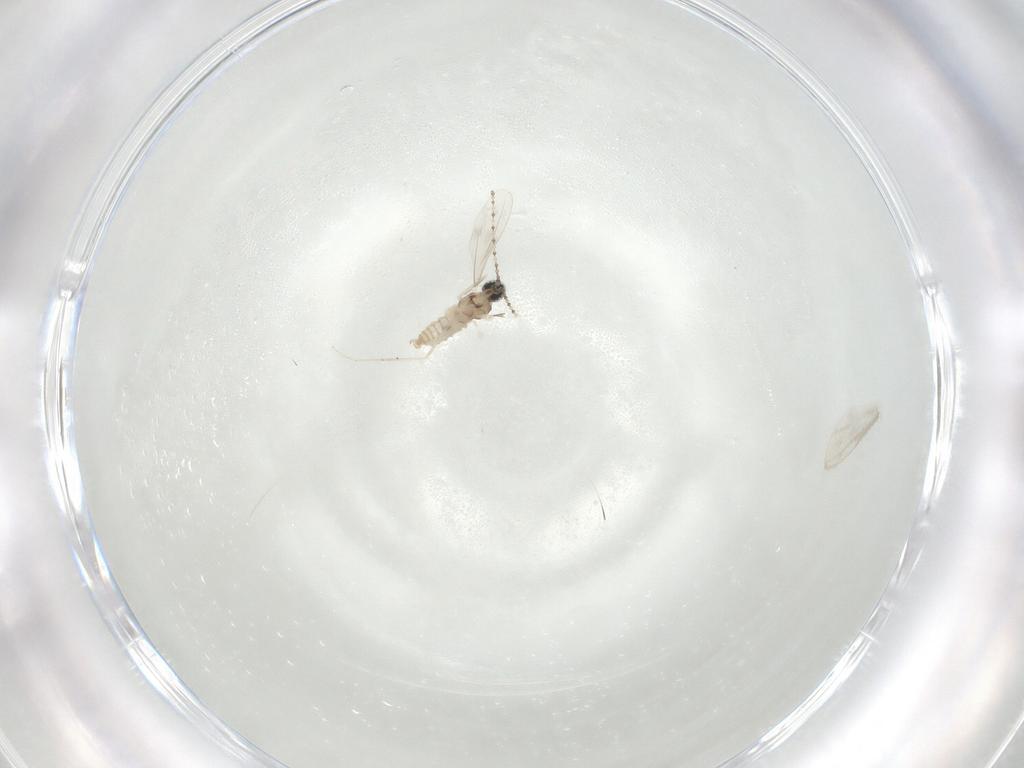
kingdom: Animalia
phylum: Arthropoda
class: Insecta
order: Diptera
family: Cecidomyiidae
